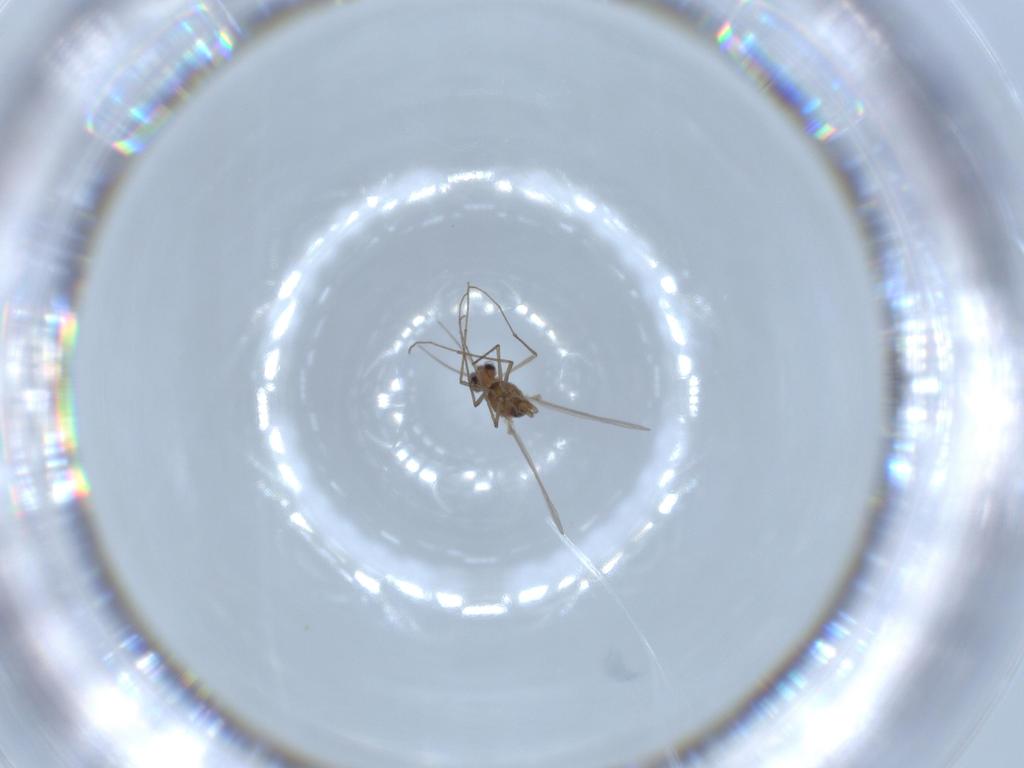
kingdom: Animalia
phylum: Arthropoda
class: Insecta
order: Diptera
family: Chironomidae
